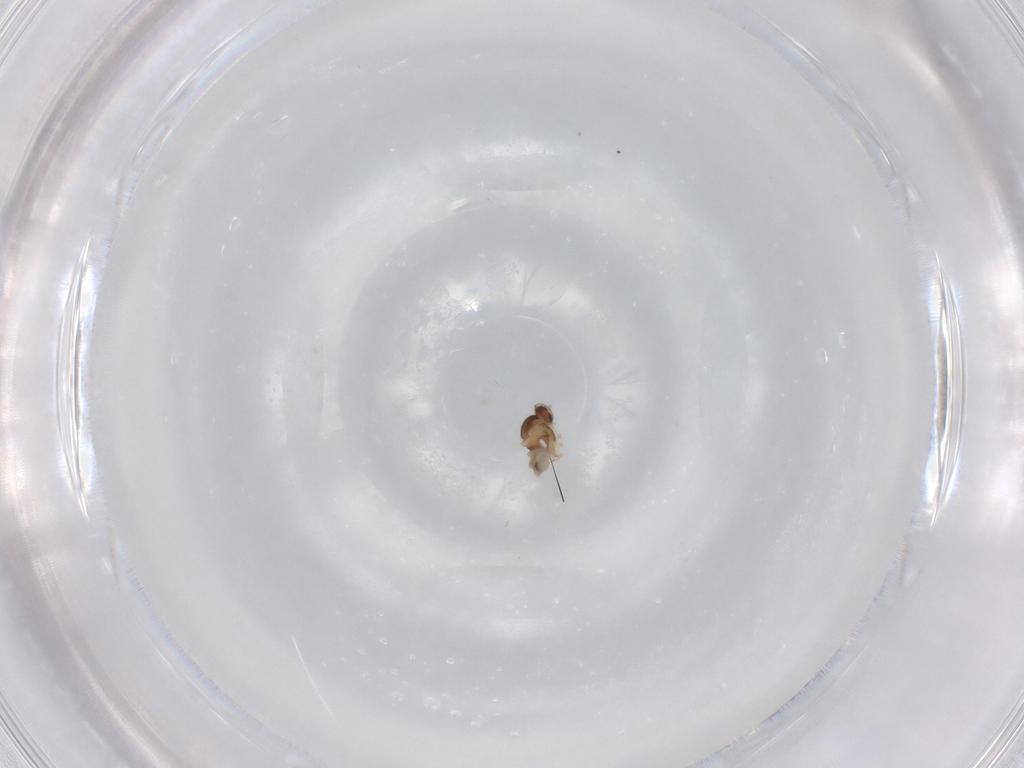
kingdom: Animalia
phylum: Arthropoda
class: Insecta
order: Diptera
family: Cecidomyiidae
